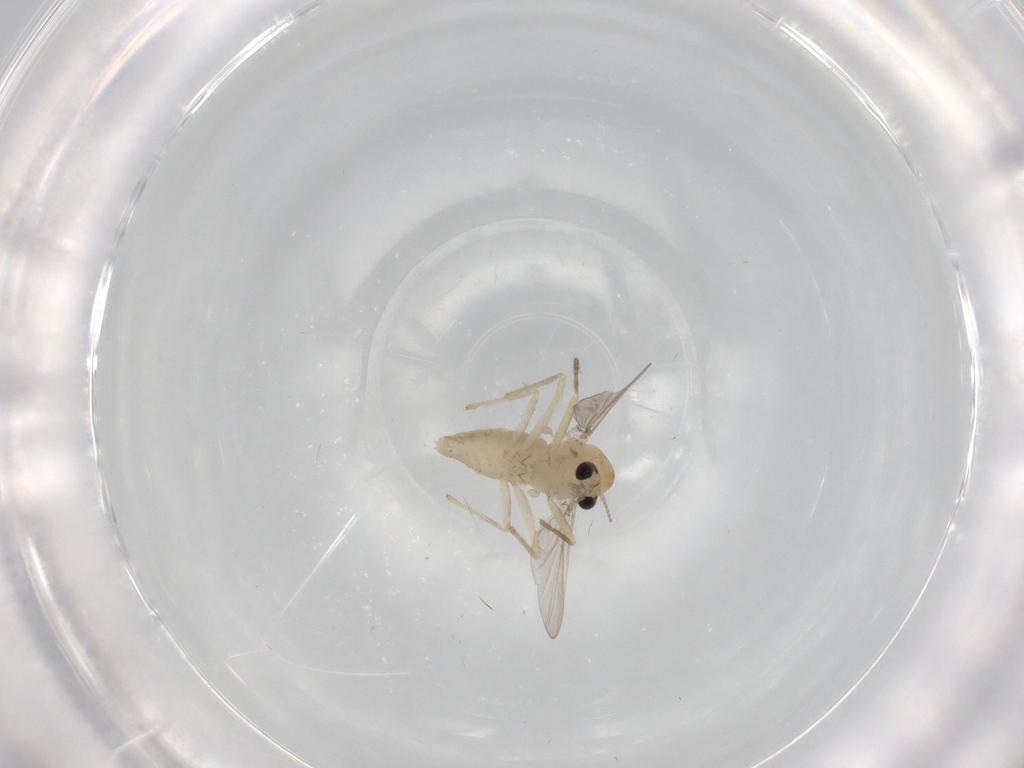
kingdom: Animalia
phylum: Arthropoda
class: Insecta
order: Diptera
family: Chironomidae
